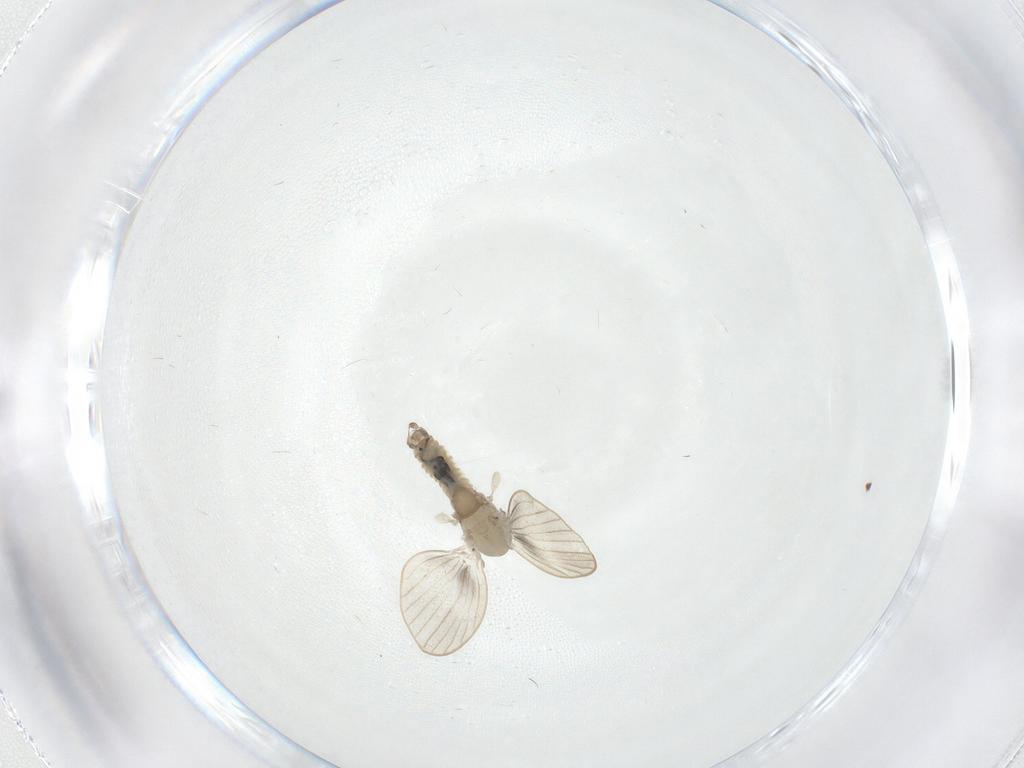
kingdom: Animalia
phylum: Arthropoda
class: Insecta
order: Diptera
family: Psychodidae
